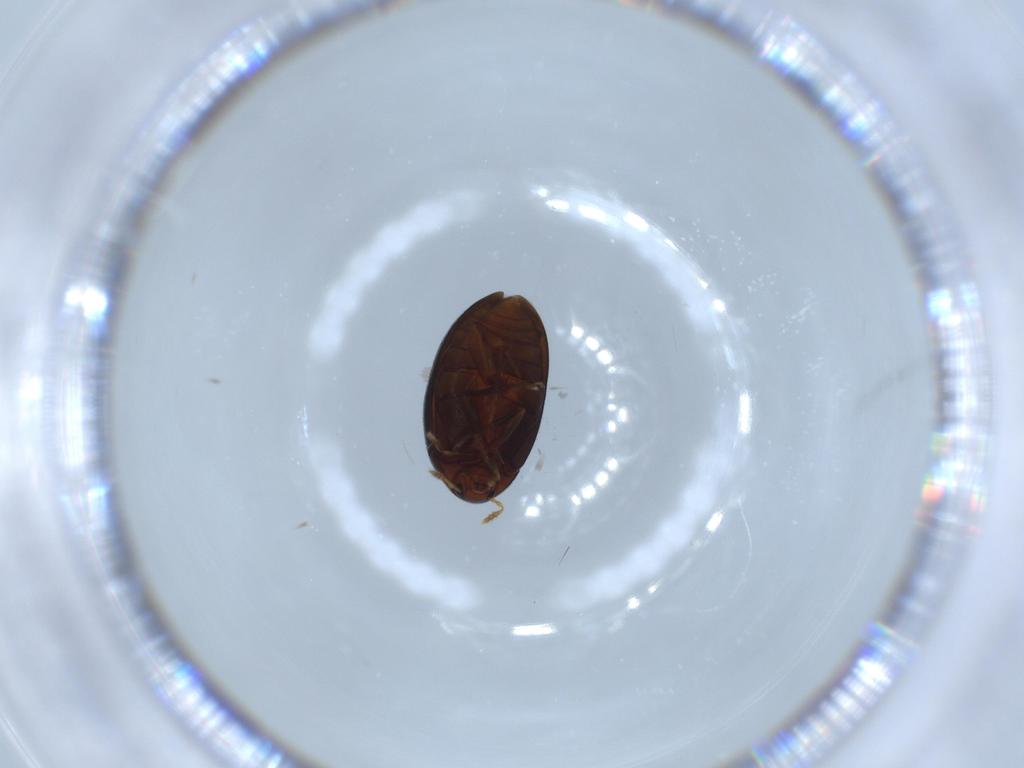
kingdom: Animalia
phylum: Arthropoda
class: Insecta
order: Coleoptera
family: Melandryidae
